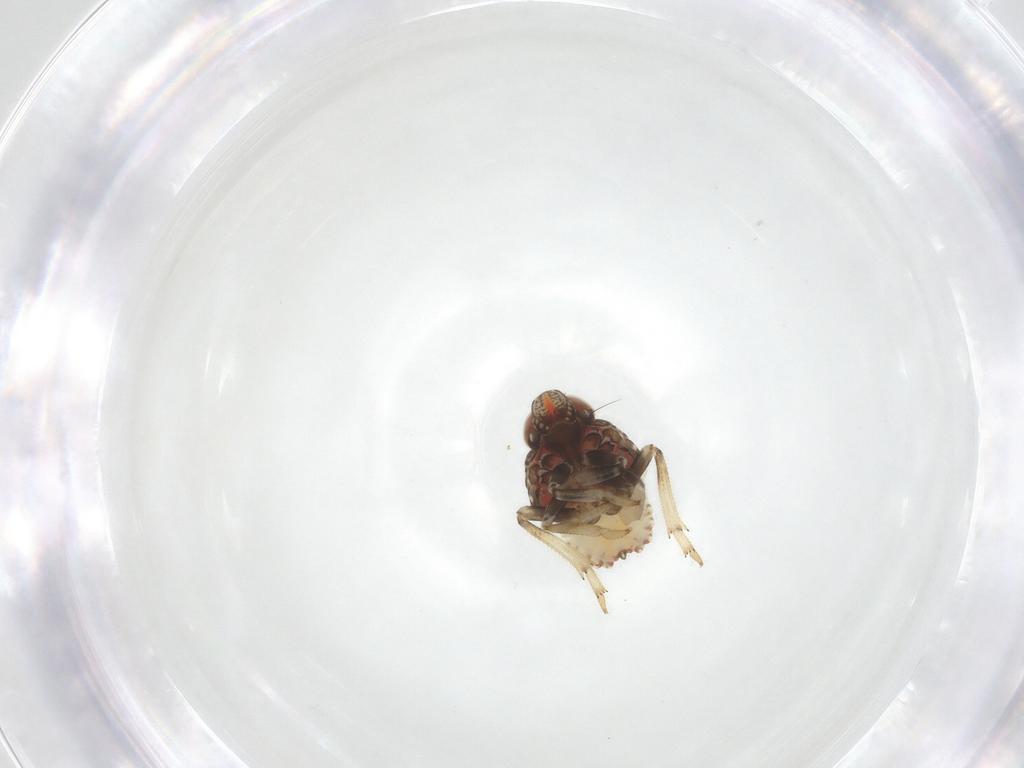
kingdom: Animalia
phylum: Arthropoda
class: Insecta
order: Hemiptera
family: Issidae
